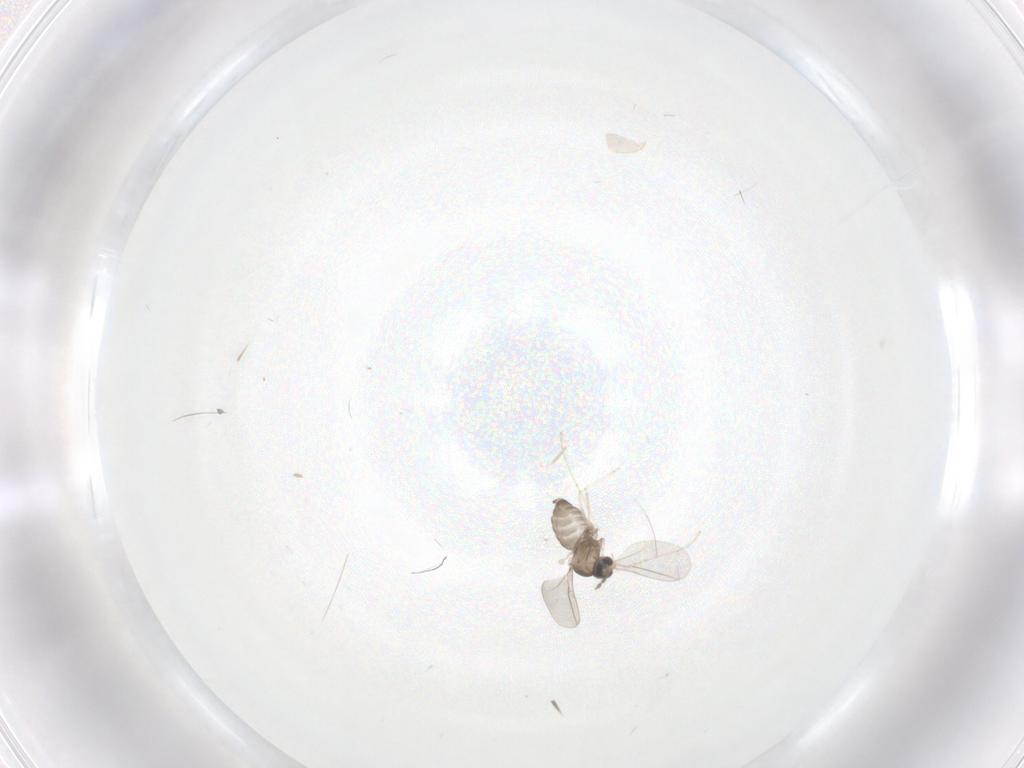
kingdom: Animalia
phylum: Arthropoda
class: Insecta
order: Diptera
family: Cecidomyiidae
